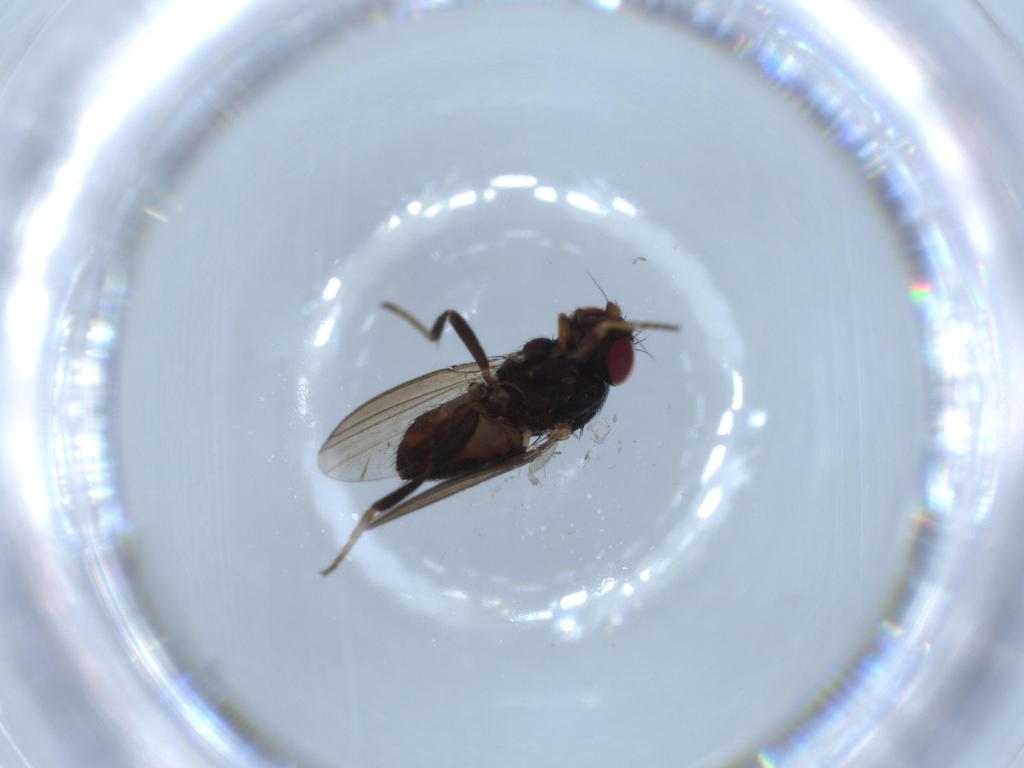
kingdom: Animalia
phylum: Arthropoda
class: Insecta
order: Diptera
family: Milichiidae
